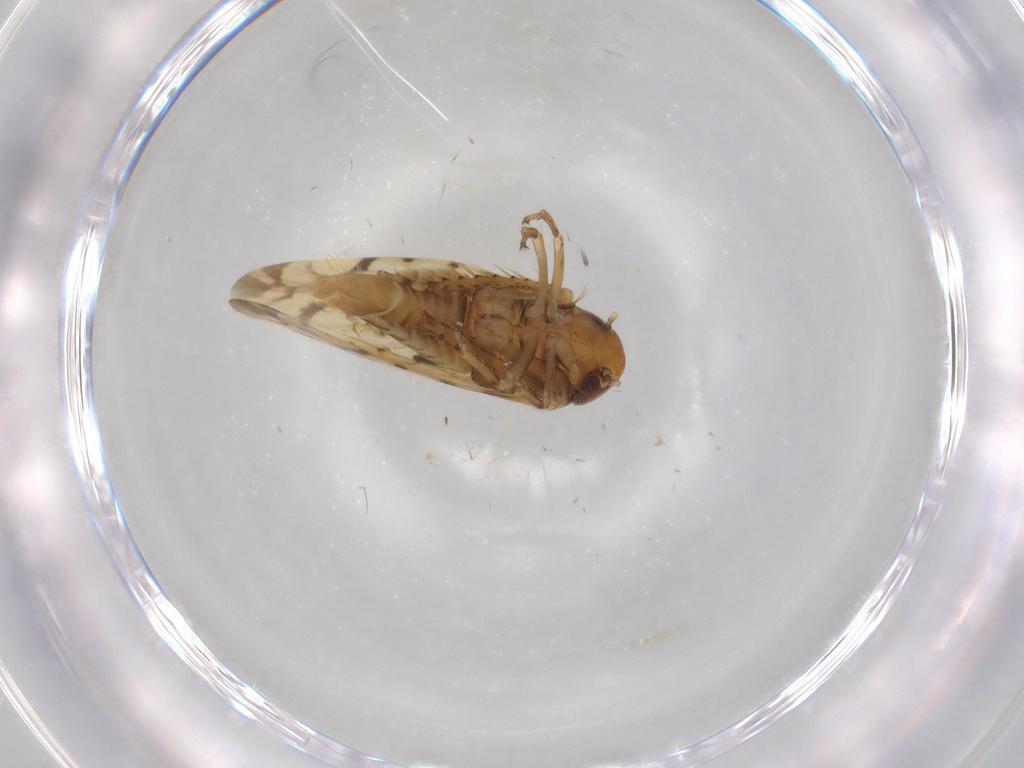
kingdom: Animalia
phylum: Arthropoda
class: Insecta
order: Hemiptera
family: Cicadellidae
